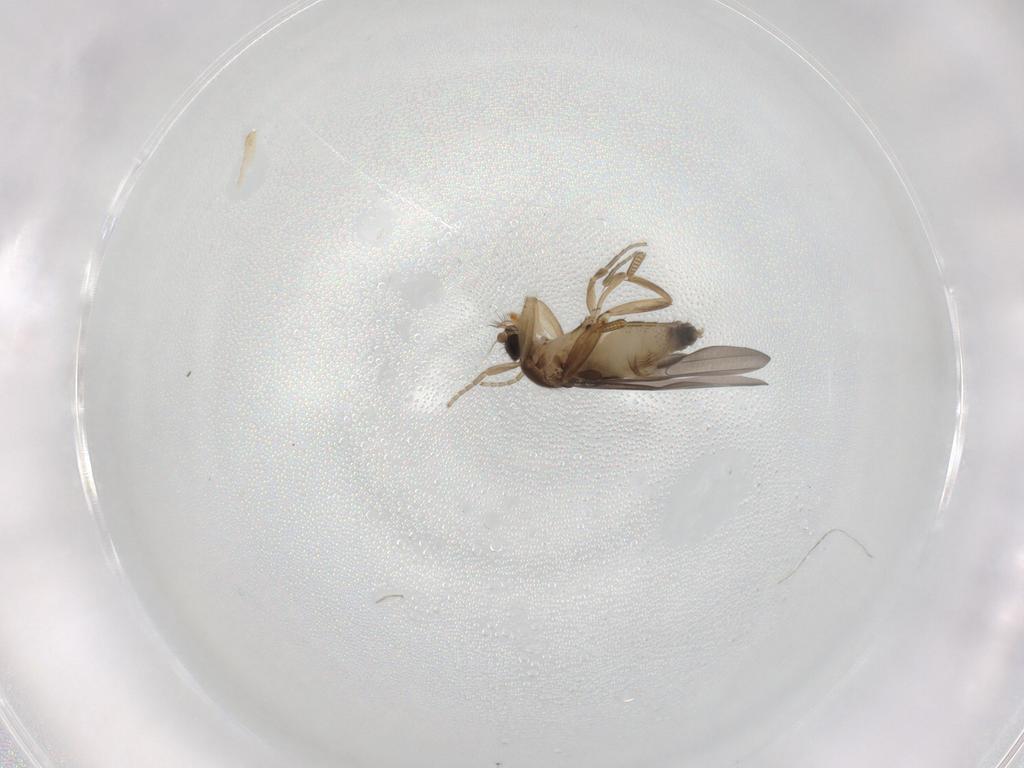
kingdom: Animalia
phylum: Arthropoda
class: Insecta
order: Diptera
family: Phoridae
